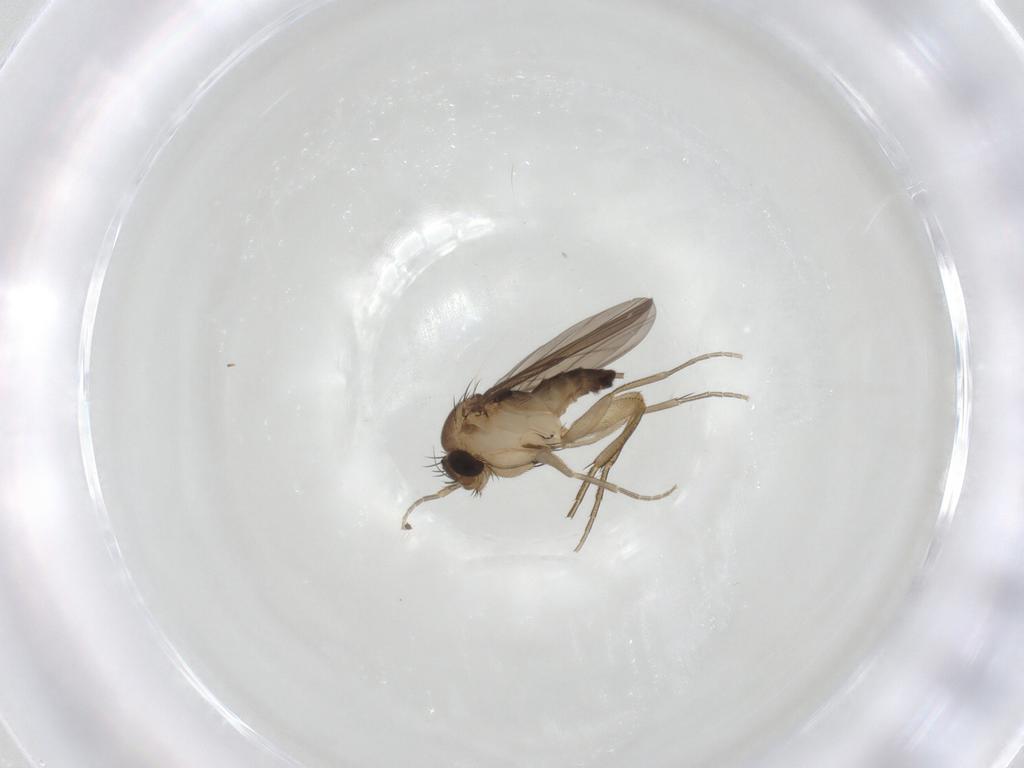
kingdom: Animalia
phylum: Arthropoda
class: Insecta
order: Diptera
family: Phoridae
